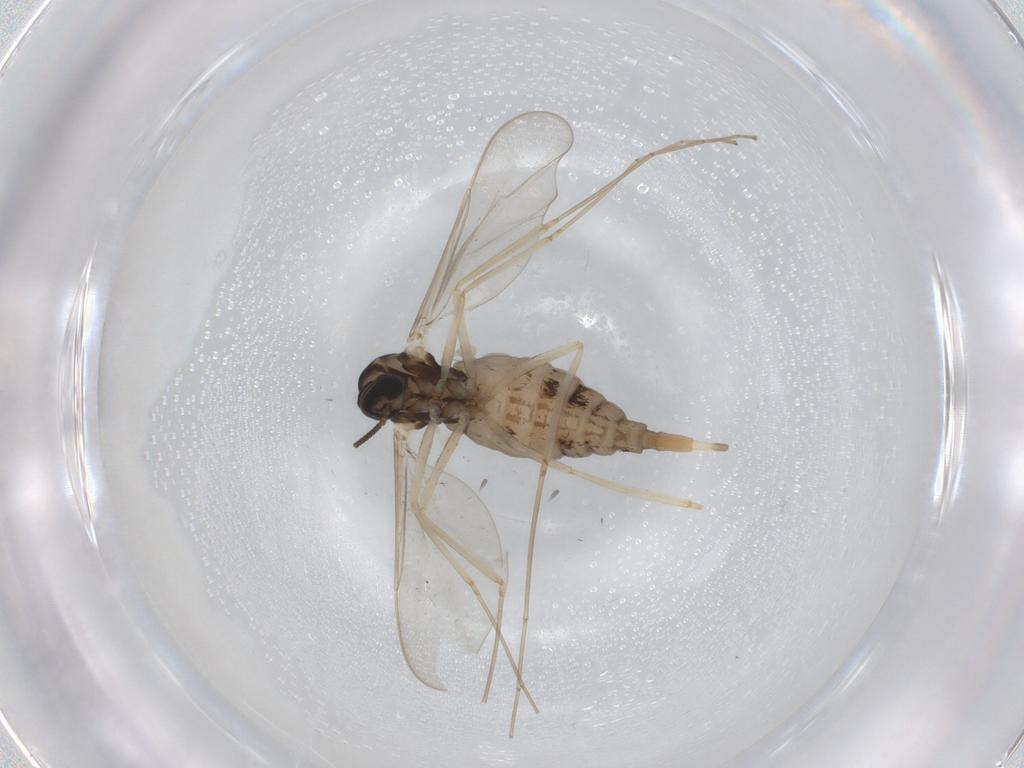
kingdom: Animalia
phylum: Arthropoda
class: Insecta
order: Diptera
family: Cecidomyiidae
